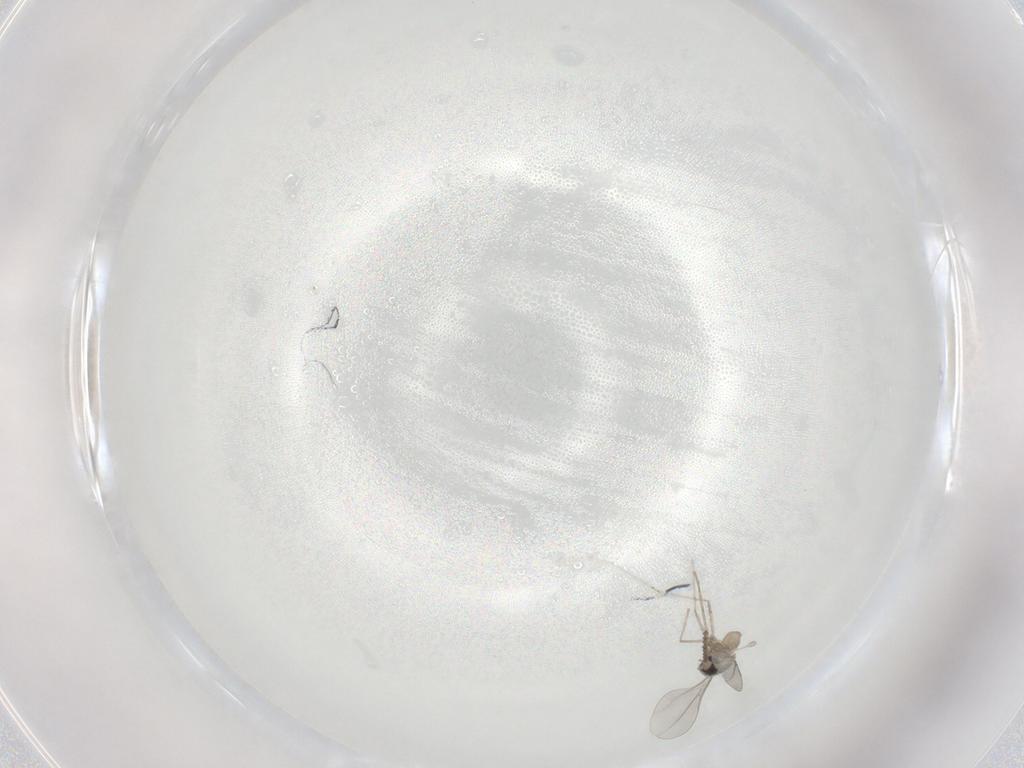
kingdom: Animalia
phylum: Arthropoda
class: Insecta
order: Diptera
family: Cecidomyiidae
